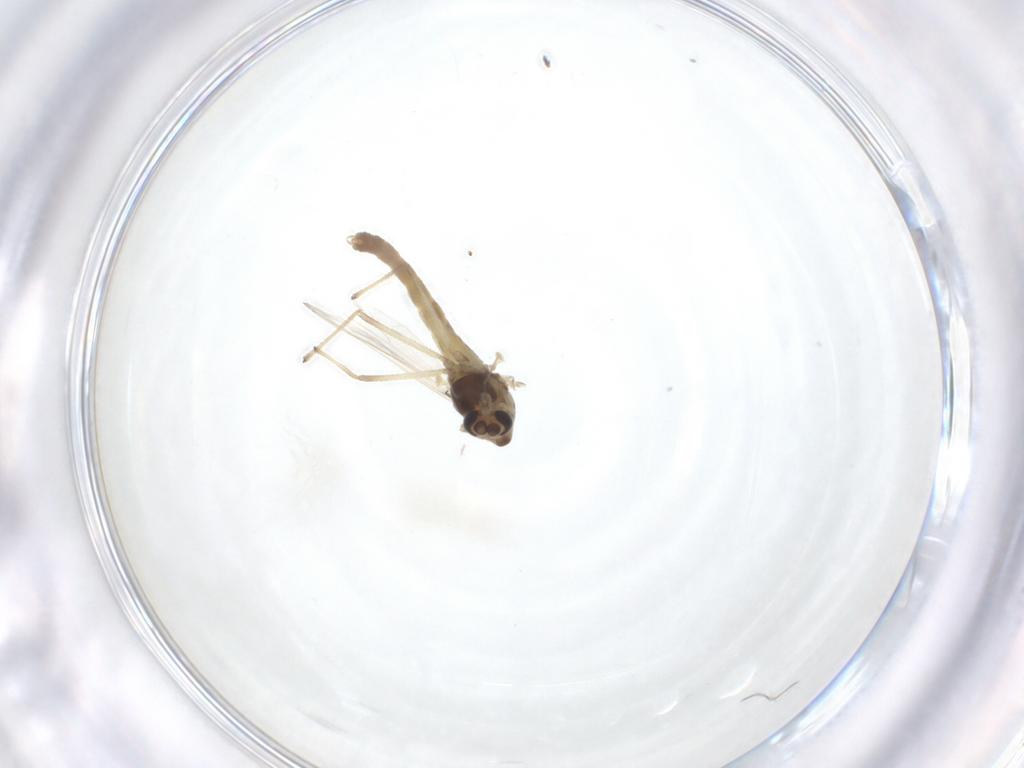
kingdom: Animalia
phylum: Arthropoda
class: Insecta
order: Diptera
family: Chironomidae
